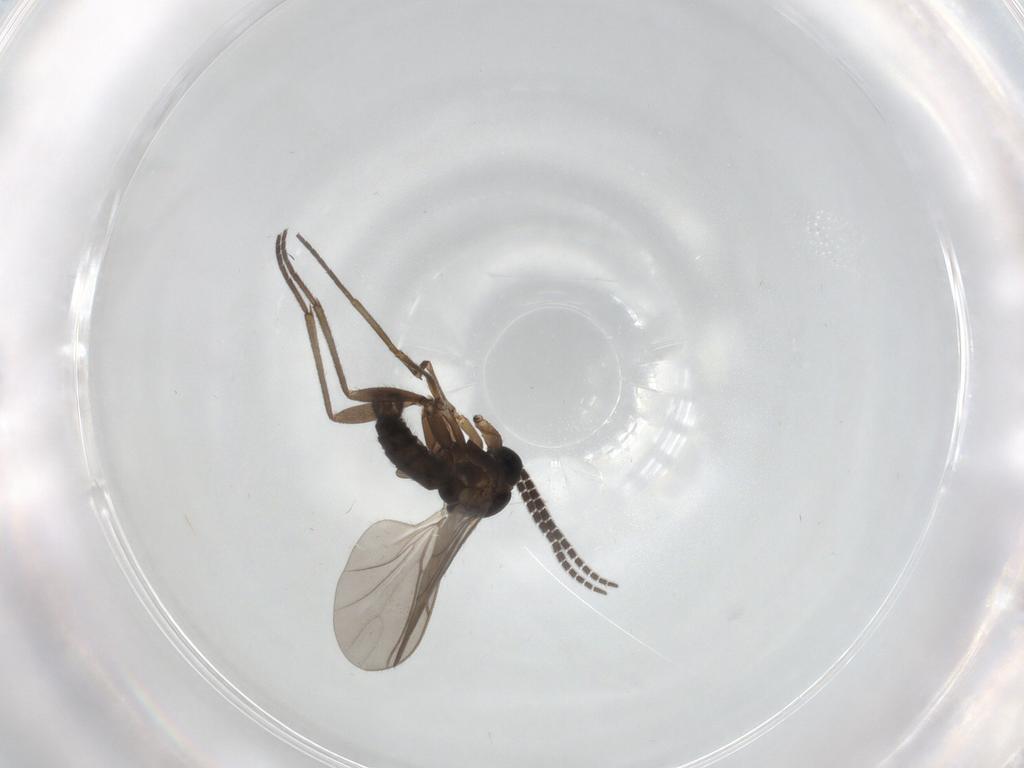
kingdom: Animalia
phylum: Arthropoda
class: Insecta
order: Diptera
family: Sciaridae
